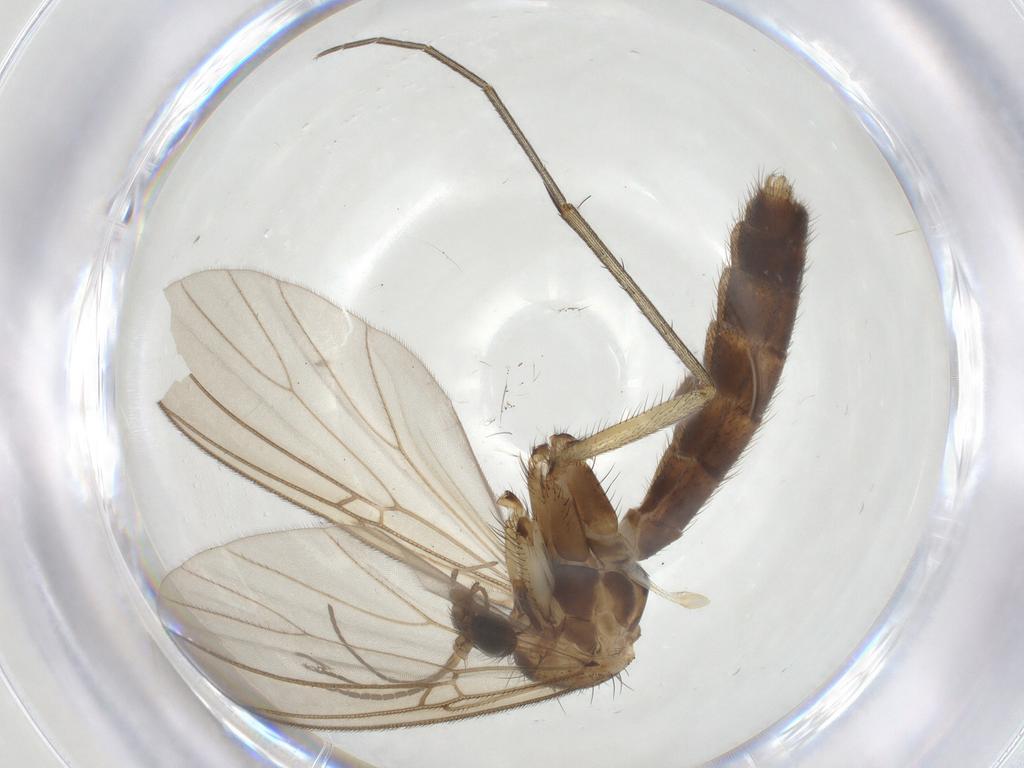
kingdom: Animalia
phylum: Arthropoda
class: Insecta
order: Diptera
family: Mycetophilidae
